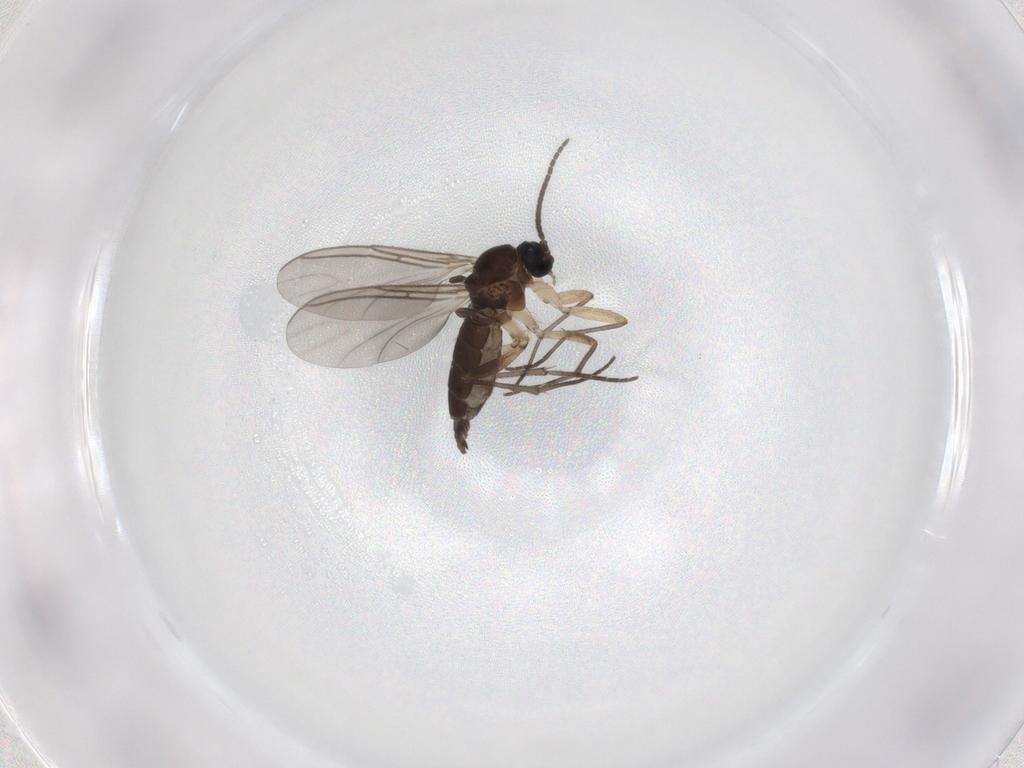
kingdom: Animalia
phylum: Arthropoda
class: Insecta
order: Diptera
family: Sciaridae
